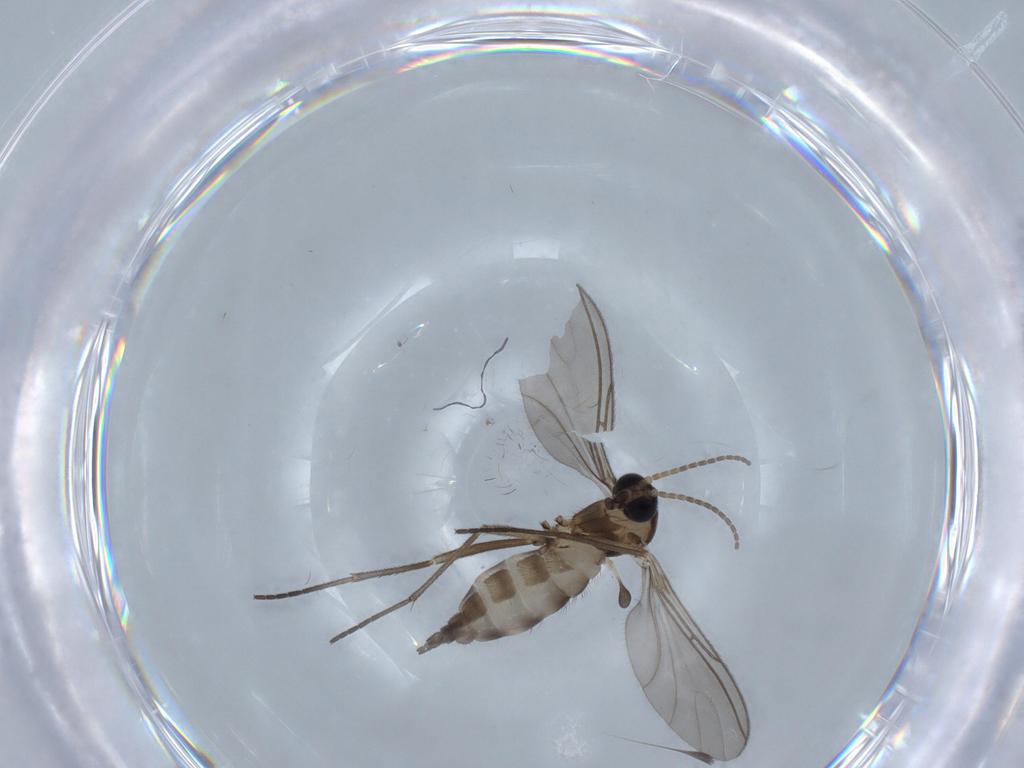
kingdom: Animalia
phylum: Arthropoda
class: Insecta
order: Diptera
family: Sciaridae
